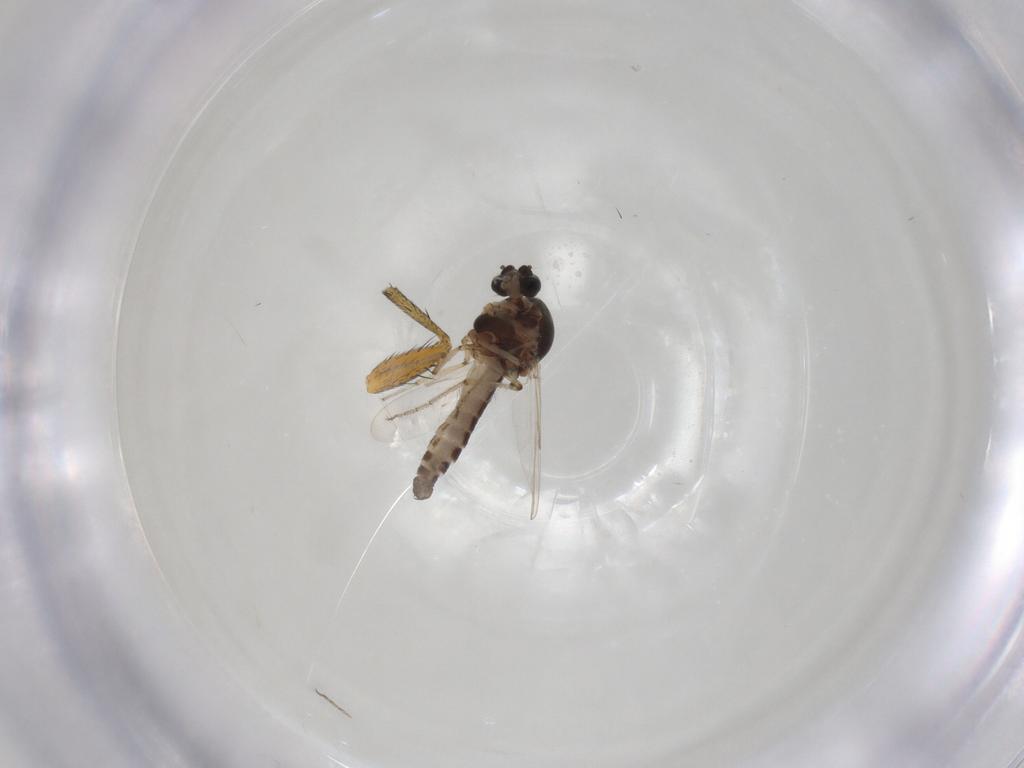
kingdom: Animalia
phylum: Arthropoda
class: Insecta
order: Diptera
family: Ceratopogonidae
